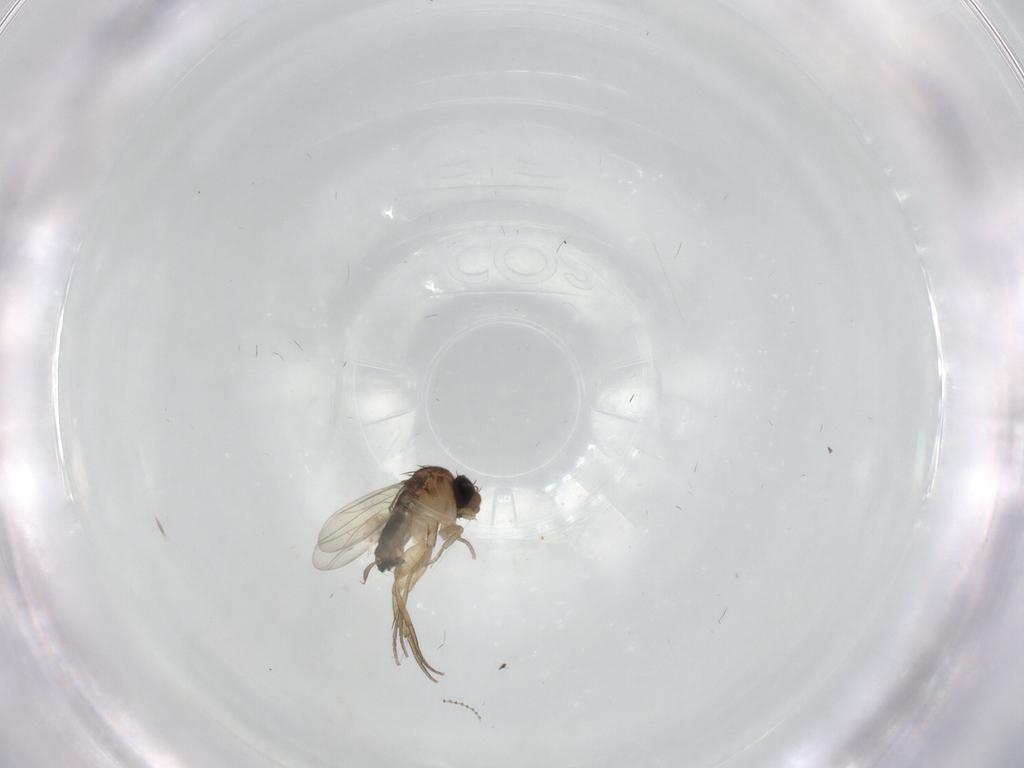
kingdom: Animalia
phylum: Arthropoda
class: Insecta
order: Diptera
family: Cecidomyiidae
